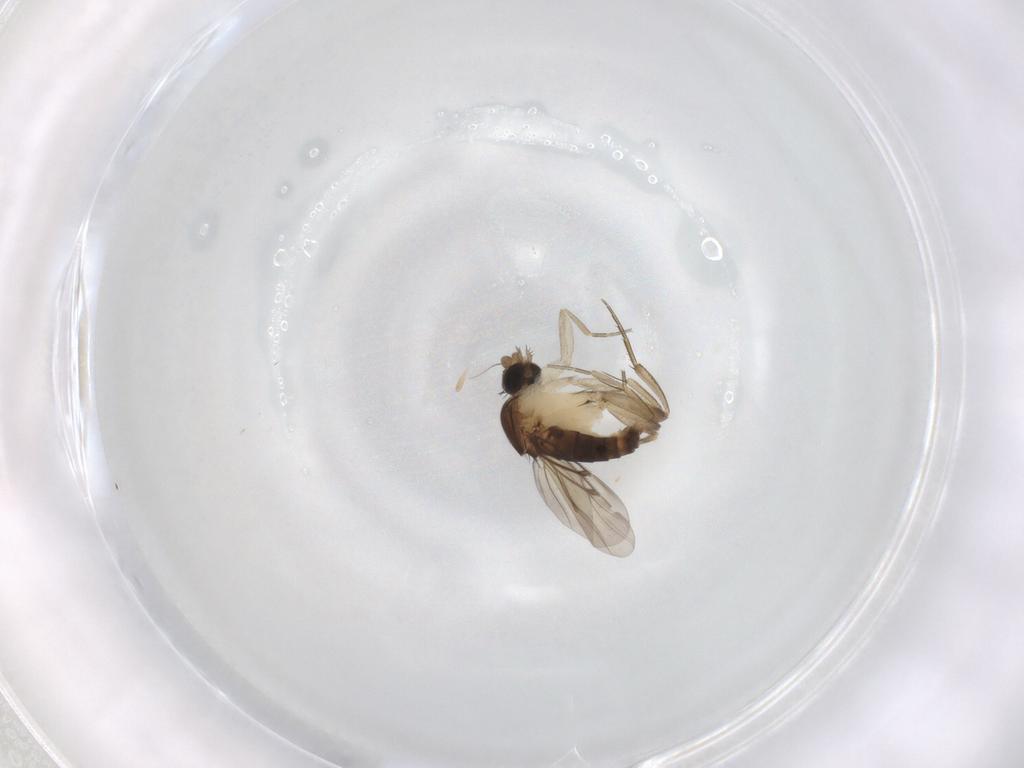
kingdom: Animalia
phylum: Arthropoda
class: Insecta
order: Diptera
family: Phoridae
